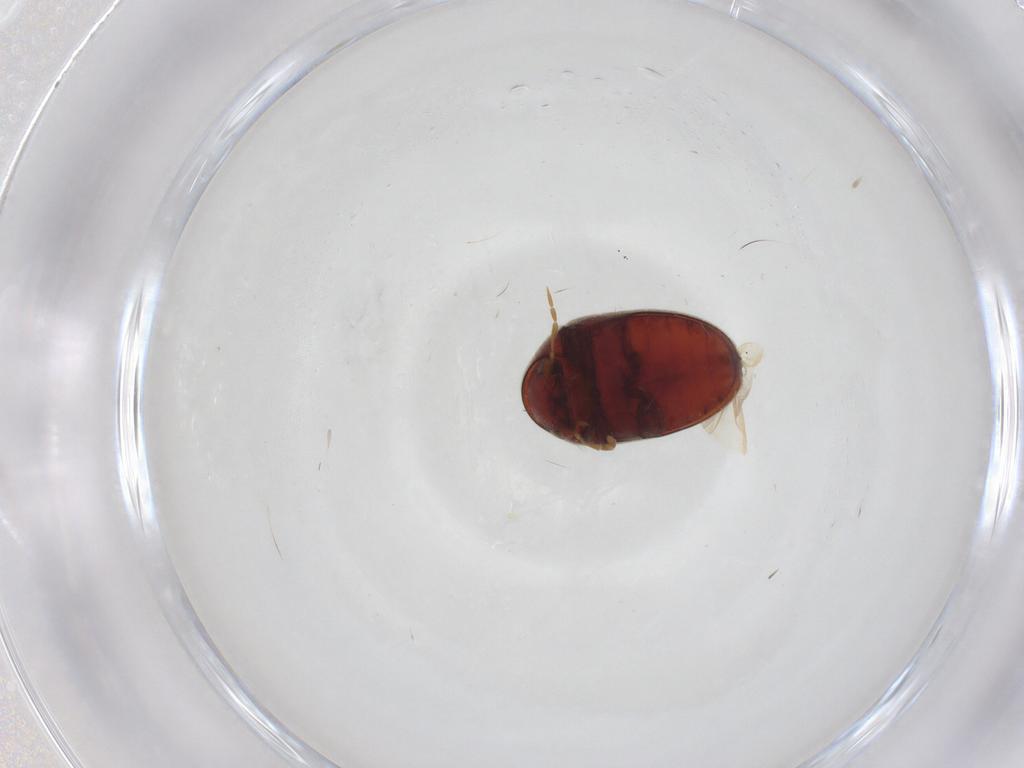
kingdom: Animalia
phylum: Arthropoda
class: Insecta
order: Coleoptera
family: Ptinidae
